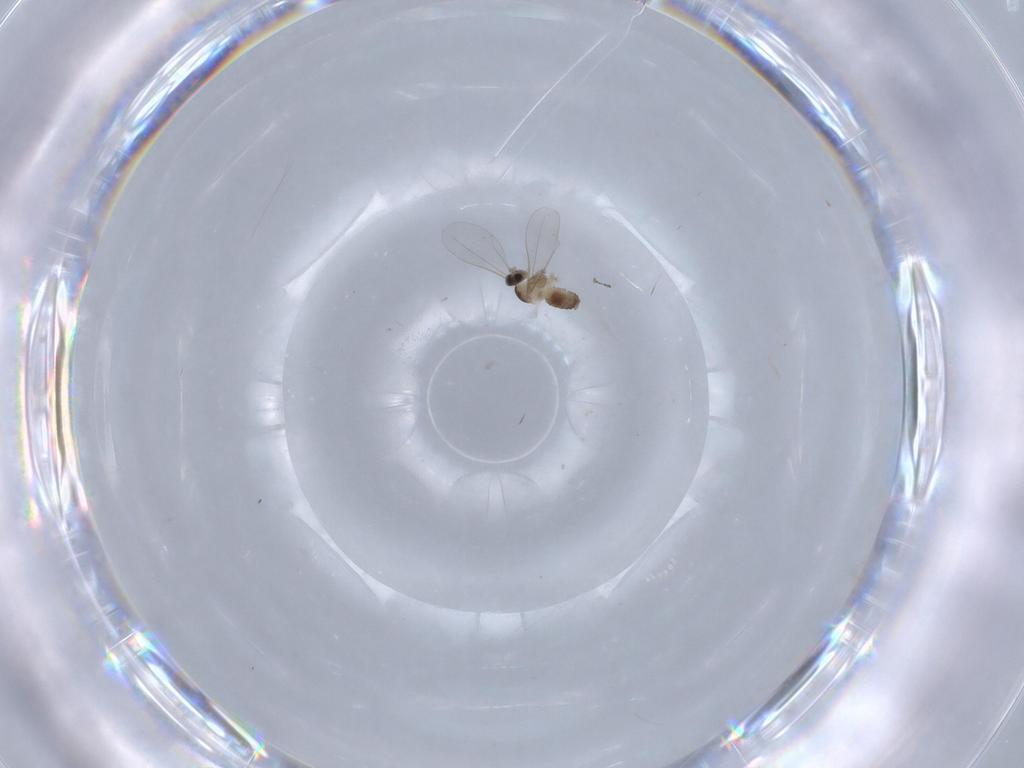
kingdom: Animalia
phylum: Arthropoda
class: Insecta
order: Diptera
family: Cecidomyiidae
